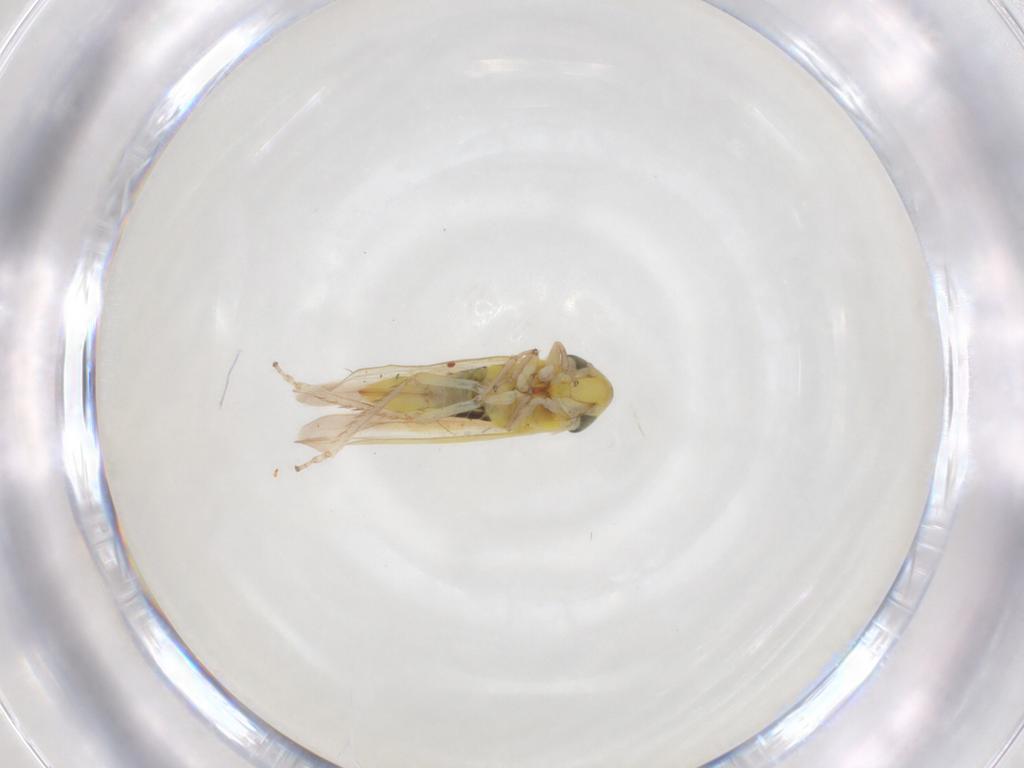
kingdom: Animalia
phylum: Arthropoda
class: Insecta
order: Hemiptera
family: Cicadellidae
